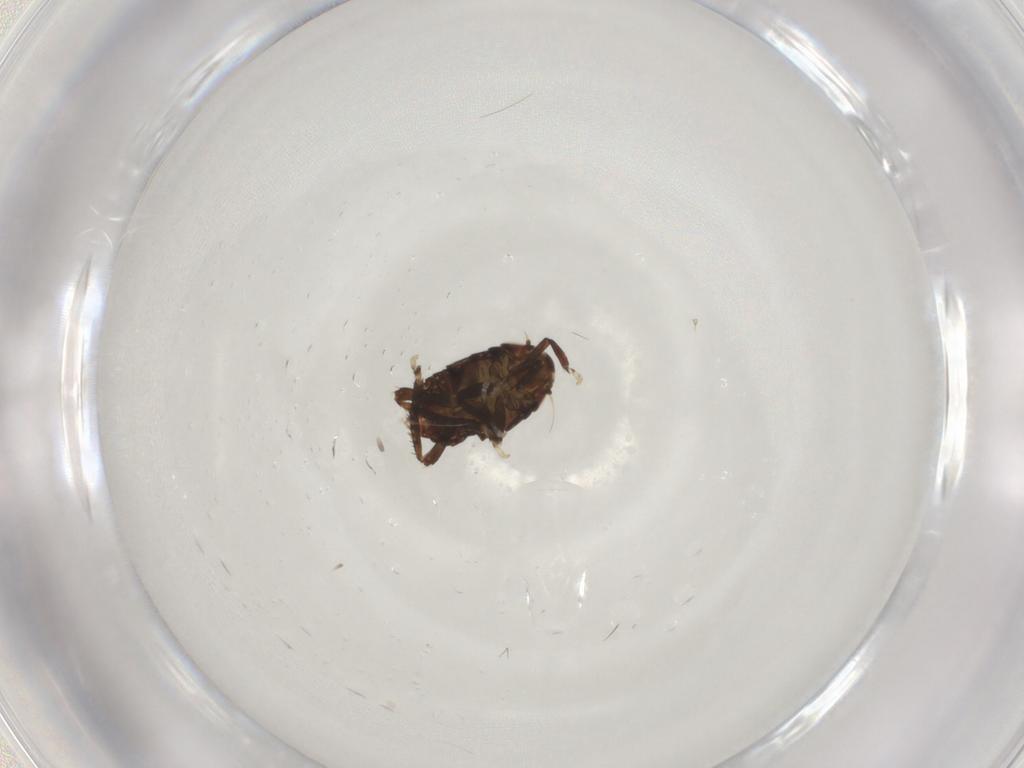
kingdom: Animalia
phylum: Arthropoda
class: Insecta
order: Hemiptera
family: Cicadellidae
